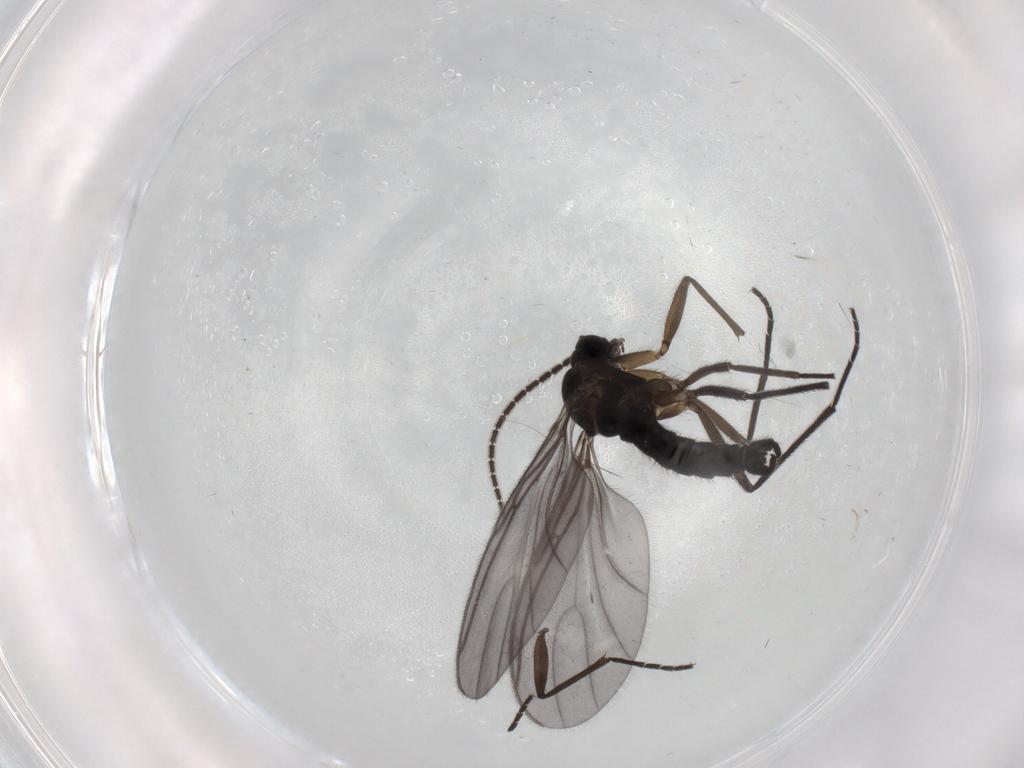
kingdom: Animalia
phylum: Arthropoda
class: Insecta
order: Diptera
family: Sciaridae
